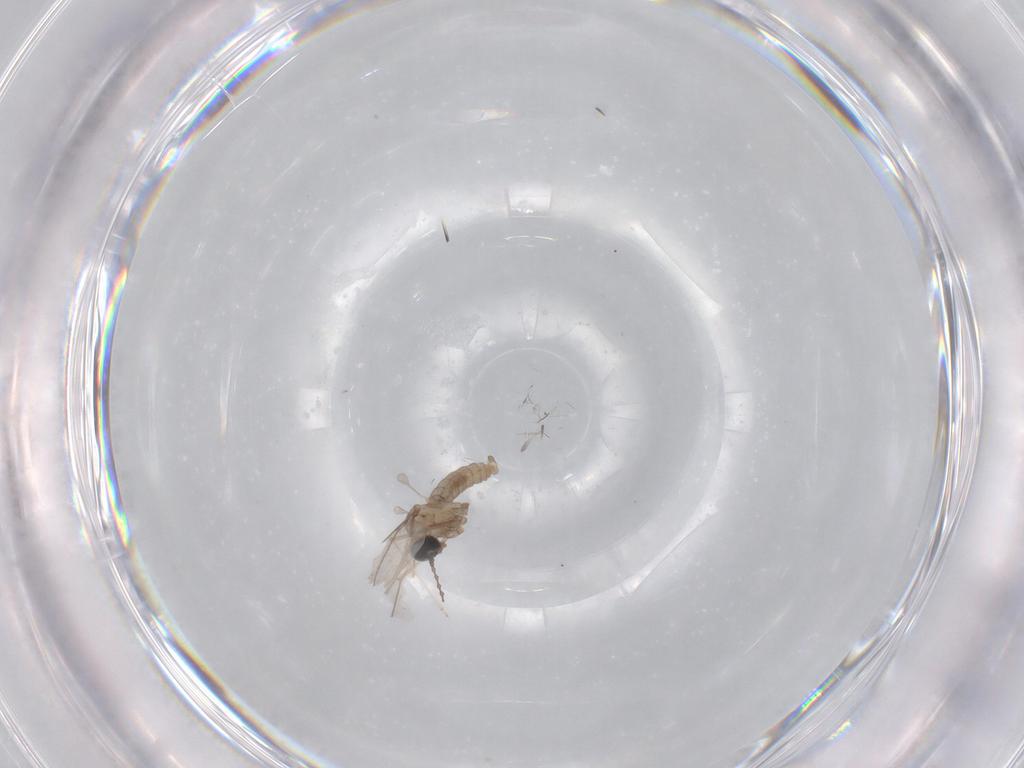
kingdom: Animalia
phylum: Arthropoda
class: Insecta
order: Diptera
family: Cecidomyiidae
